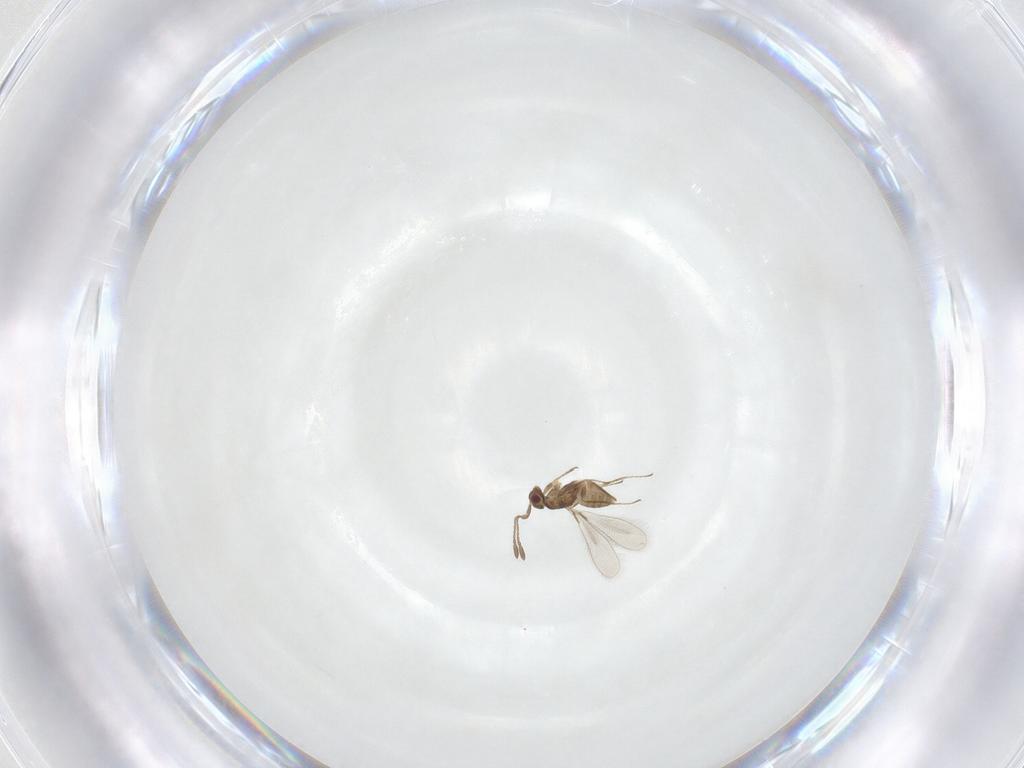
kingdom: Animalia
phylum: Arthropoda
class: Insecta
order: Hymenoptera
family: Mymaridae
